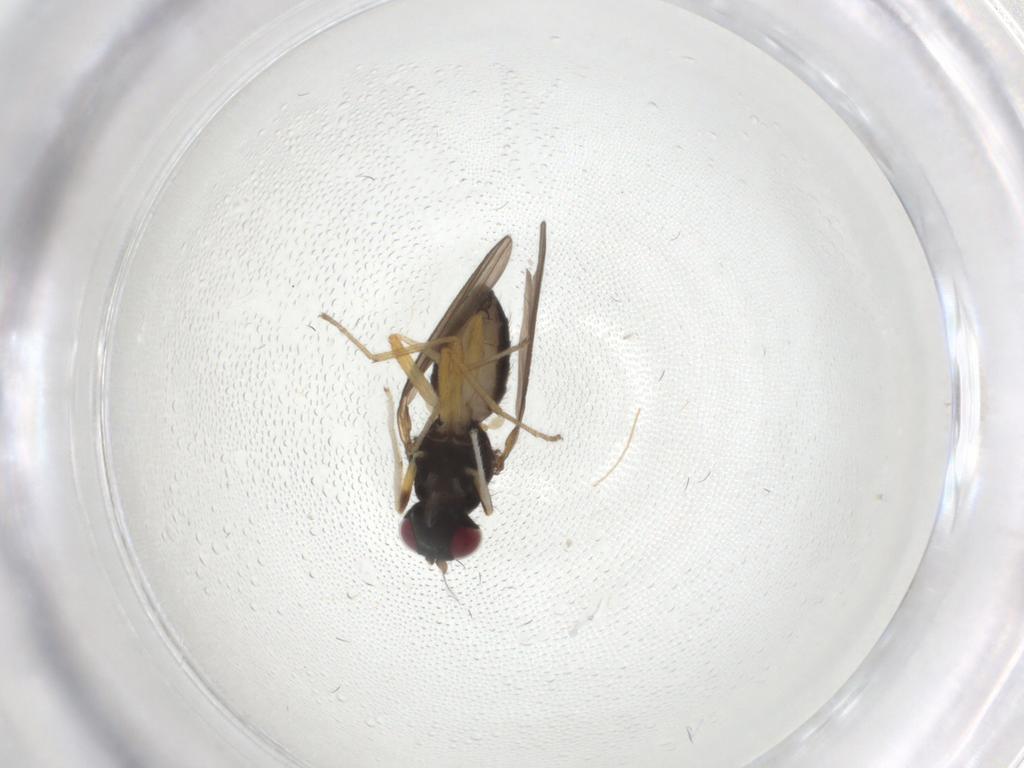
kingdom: Animalia
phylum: Arthropoda
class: Insecta
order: Diptera
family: Lauxaniidae
